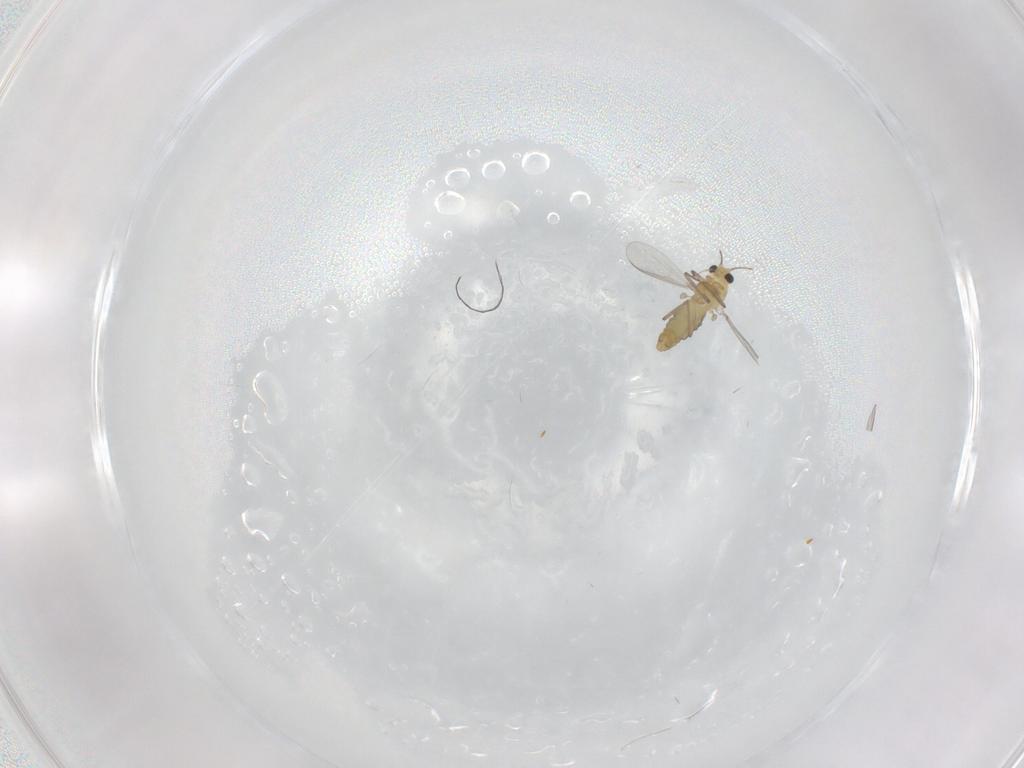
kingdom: Animalia
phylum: Arthropoda
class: Insecta
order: Diptera
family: Chironomidae
